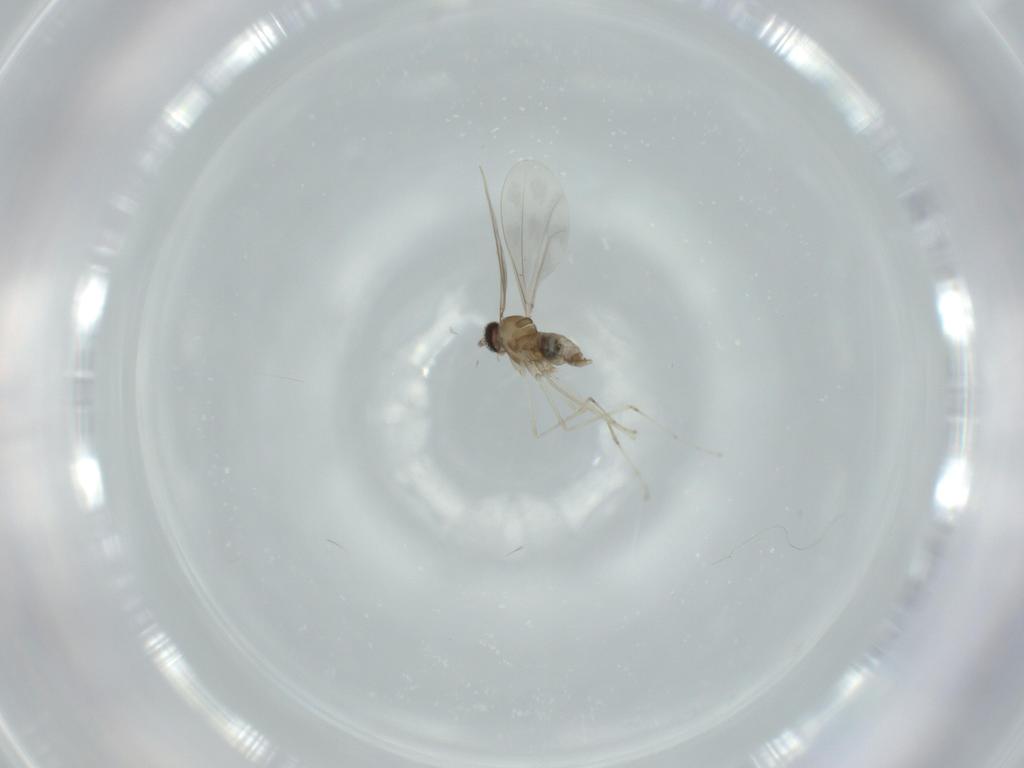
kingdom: Animalia
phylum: Arthropoda
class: Insecta
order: Diptera
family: Cecidomyiidae
